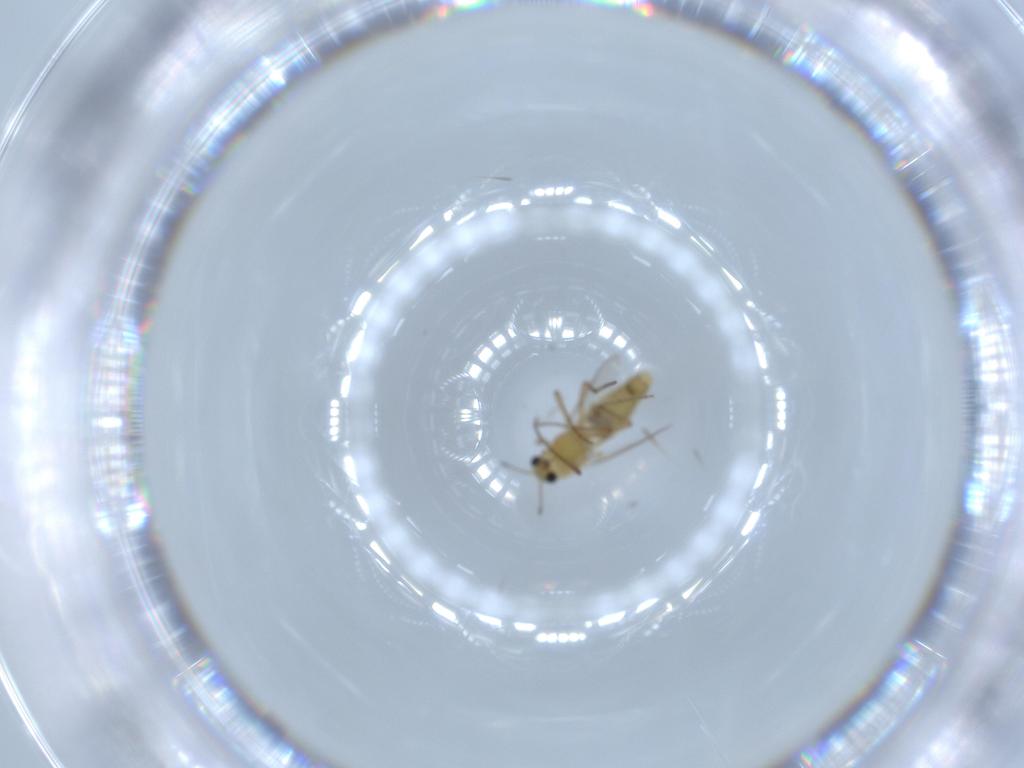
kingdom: Animalia
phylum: Arthropoda
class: Insecta
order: Diptera
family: Chironomidae
